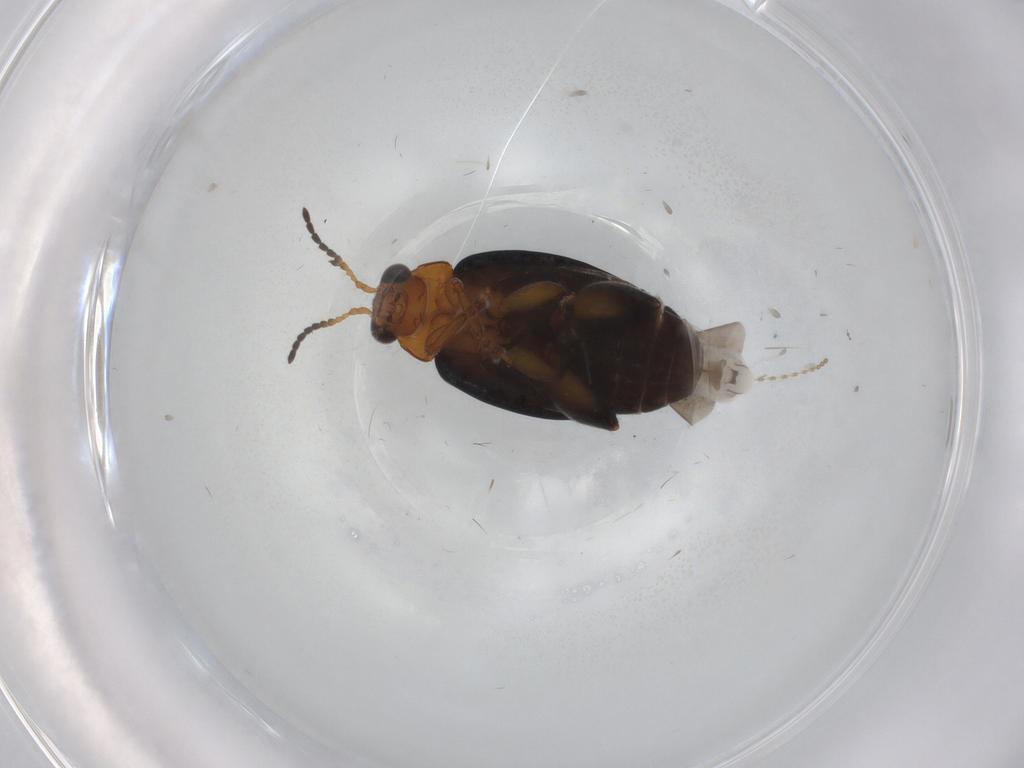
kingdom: Animalia
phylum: Arthropoda
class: Insecta
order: Coleoptera
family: Chrysomelidae
